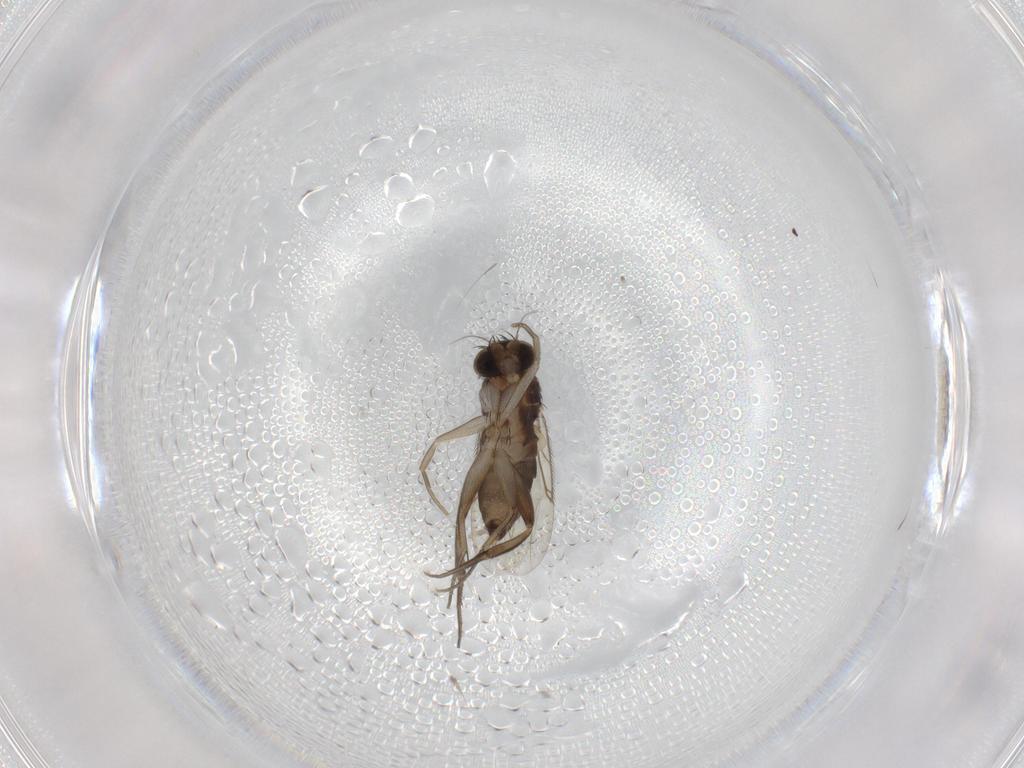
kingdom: Animalia
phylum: Arthropoda
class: Insecta
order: Diptera
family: Phoridae
